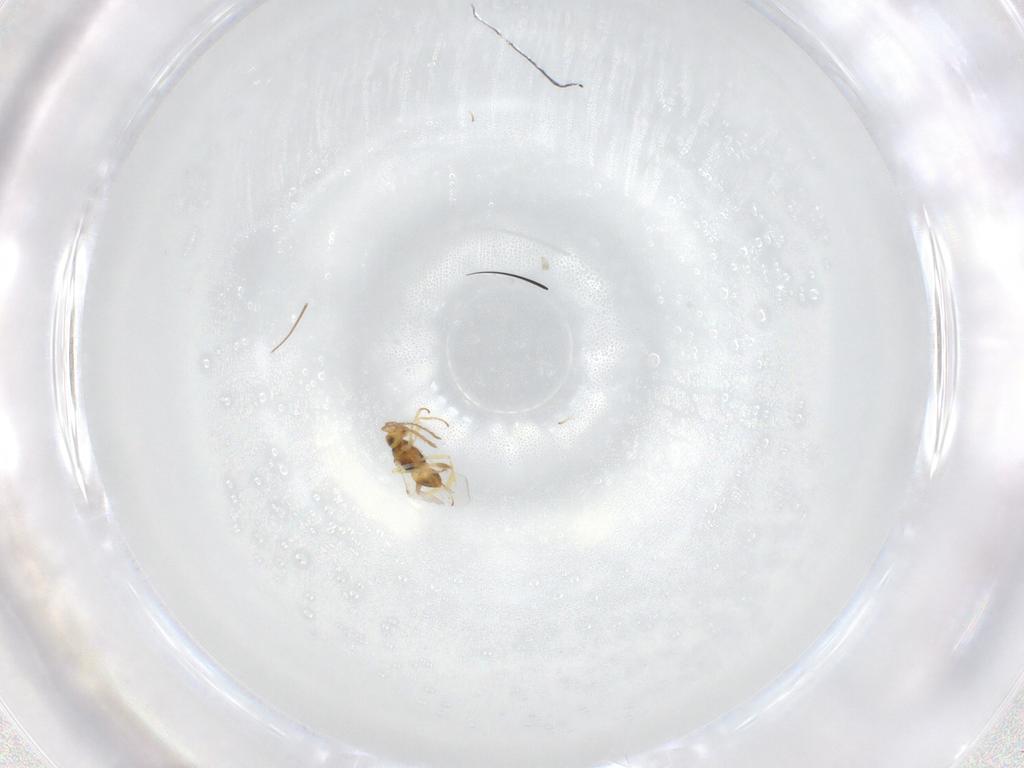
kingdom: Animalia
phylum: Arthropoda
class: Insecta
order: Hymenoptera
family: Encyrtidae
